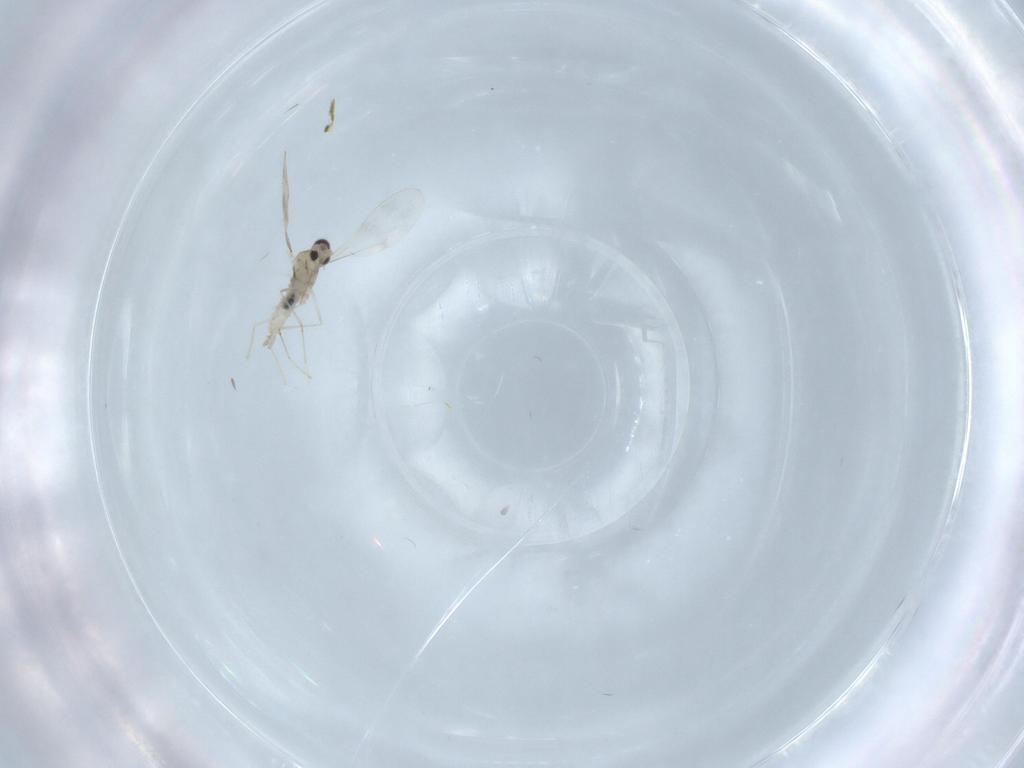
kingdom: Animalia
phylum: Arthropoda
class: Insecta
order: Diptera
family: Cecidomyiidae
